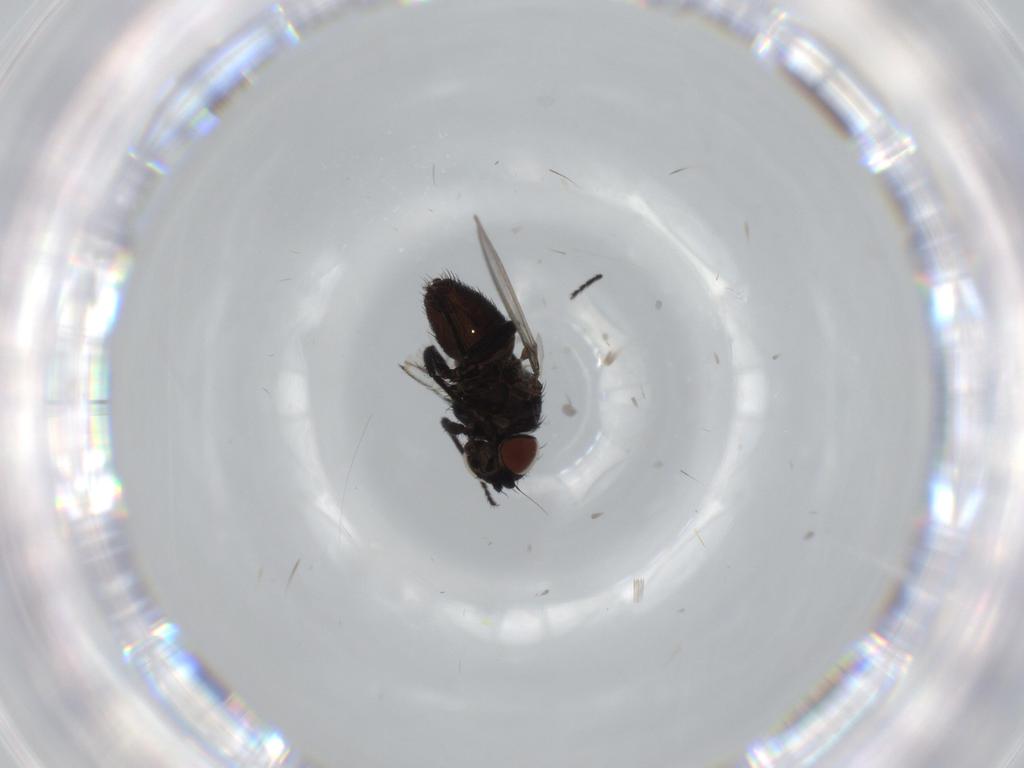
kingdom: Animalia
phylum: Arthropoda
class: Insecta
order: Diptera
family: Milichiidae
